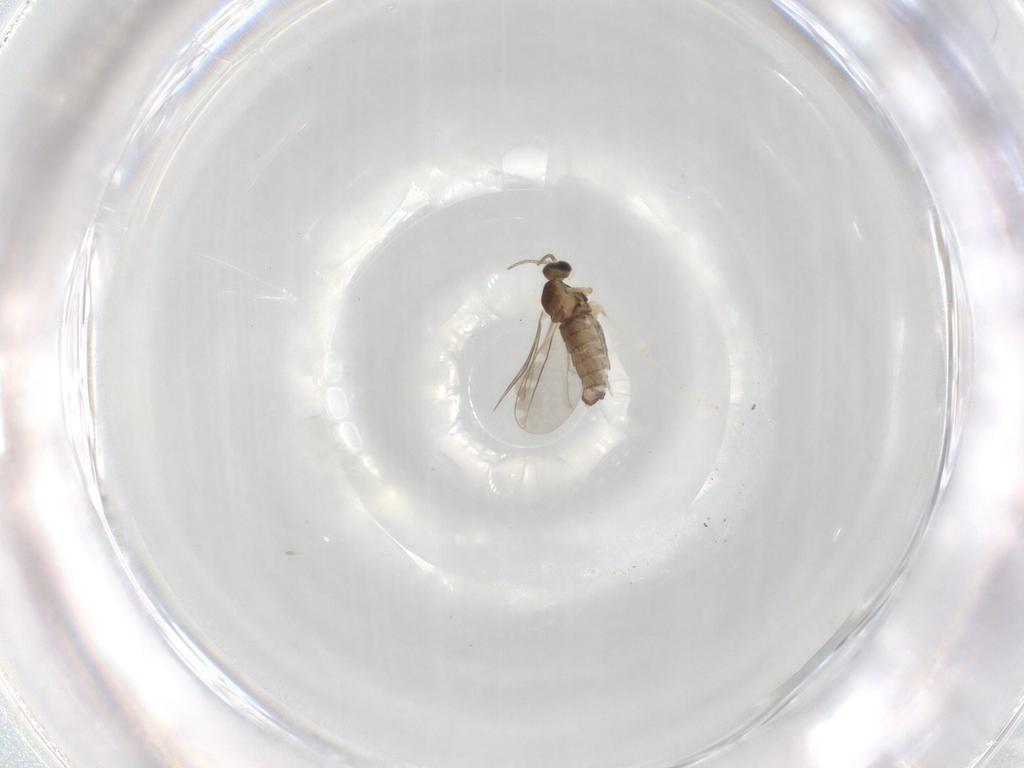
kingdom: Animalia
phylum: Arthropoda
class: Insecta
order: Diptera
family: Cecidomyiidae
